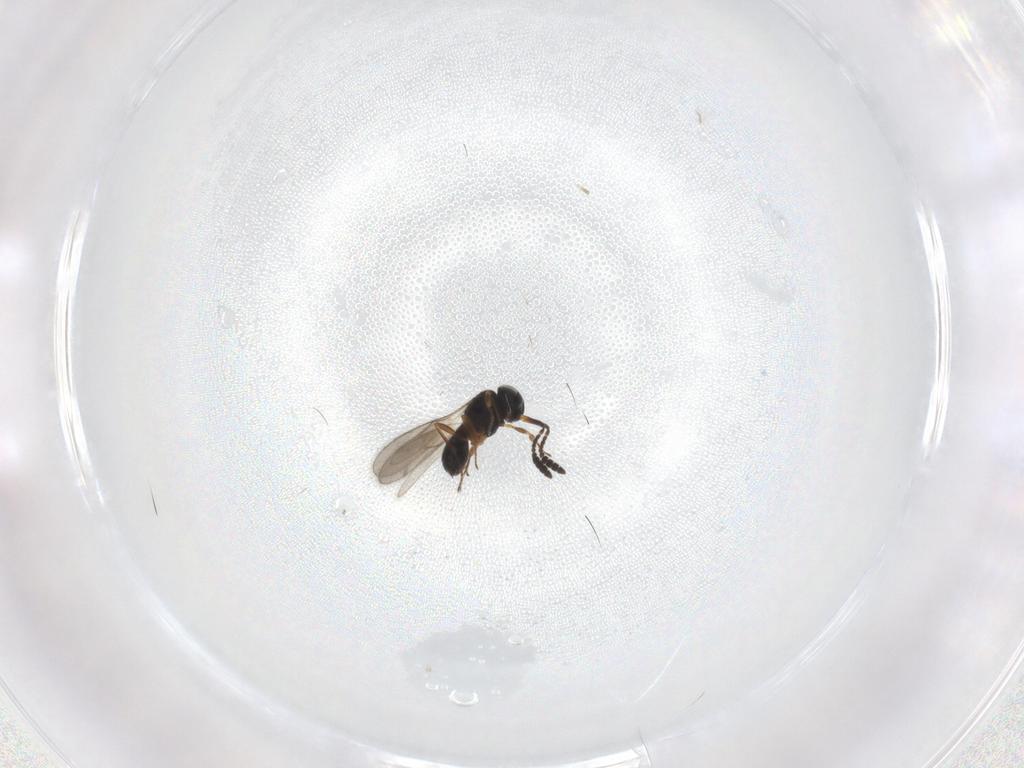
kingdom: Animalia
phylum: Arthropoda
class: Insecta
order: Hymenoptera
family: Scelionidae
